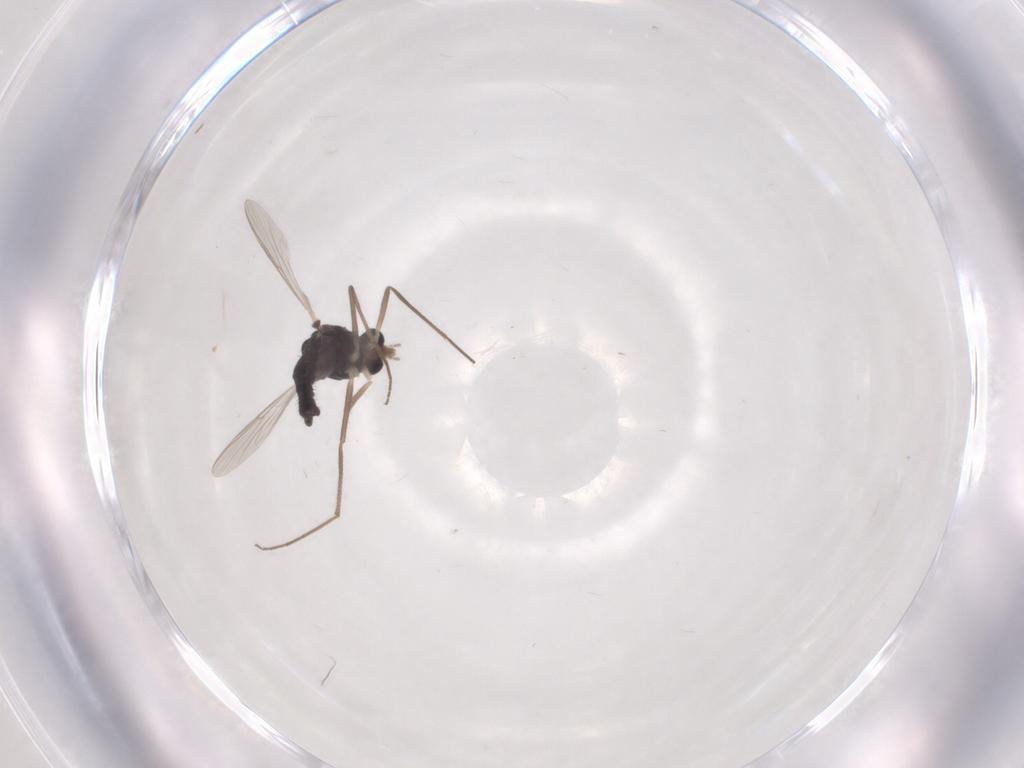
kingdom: Animalia
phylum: Arthropoda
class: Insecta
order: Diptera
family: Chironomidae
